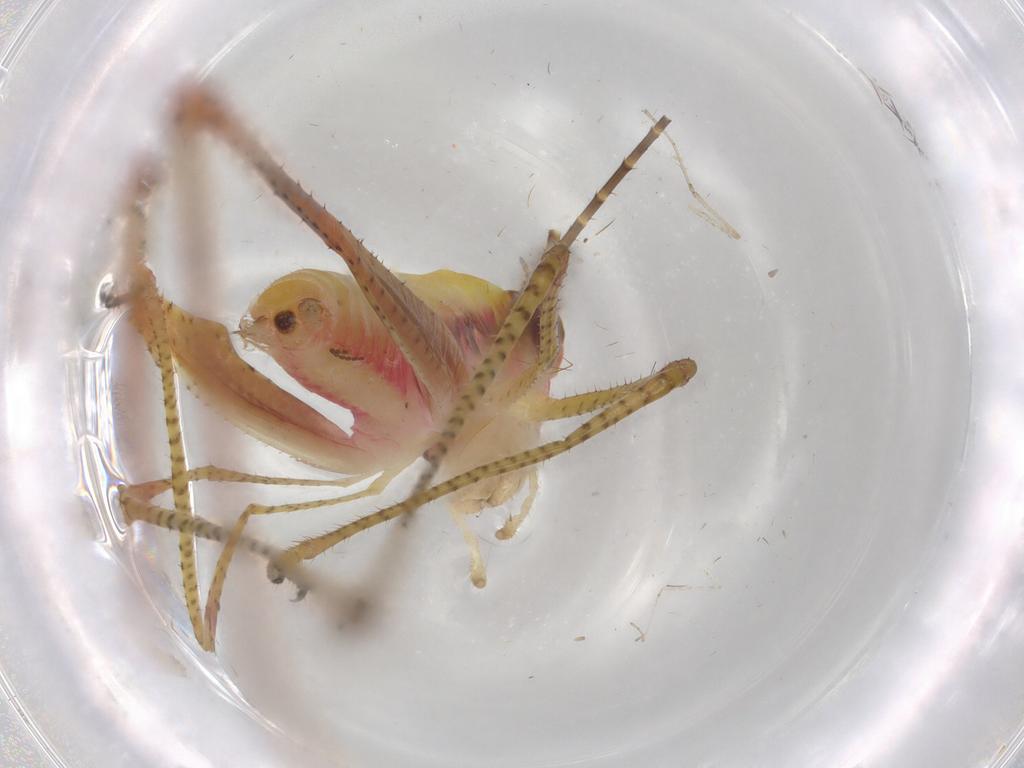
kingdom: Animalia
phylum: Arthropoda
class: Insecta
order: Orthoptera
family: Tettigoniidae
